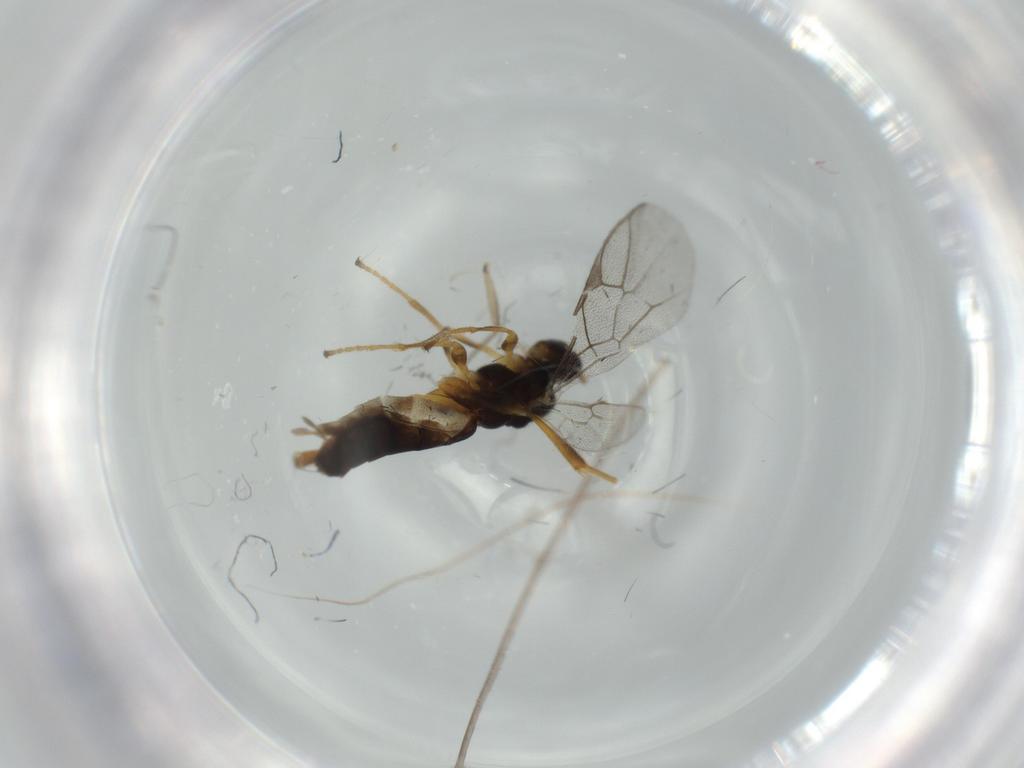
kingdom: Animalia
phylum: Arthropoda
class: Insecta
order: Hymenoptera
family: Ichneumonidae
